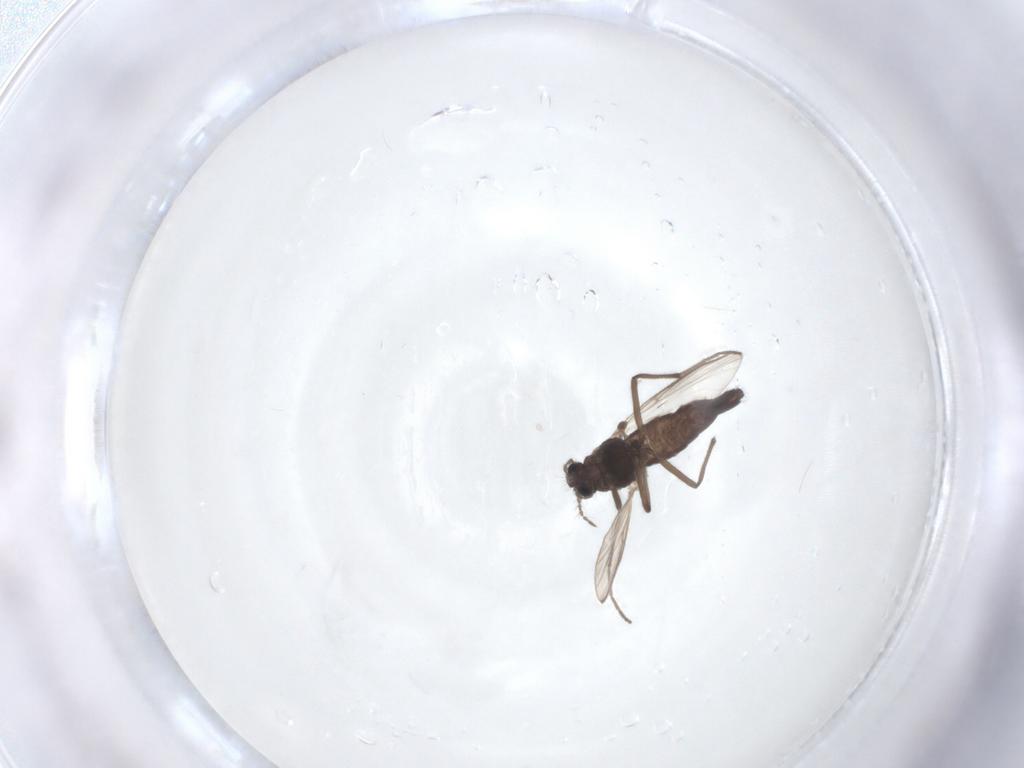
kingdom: Animalia
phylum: Arthropoda
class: Insecta
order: Diptera
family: Chironomidae
